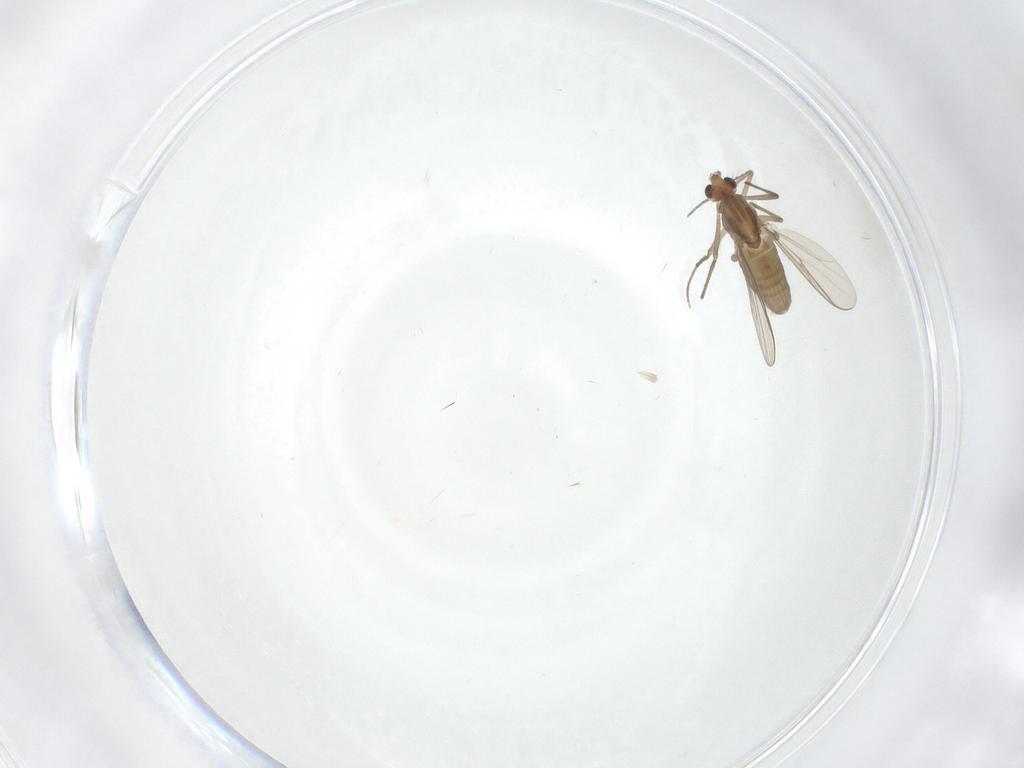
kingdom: Animalia
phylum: Arthropoda
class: Insecta
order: Diptera
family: Chironomidae
